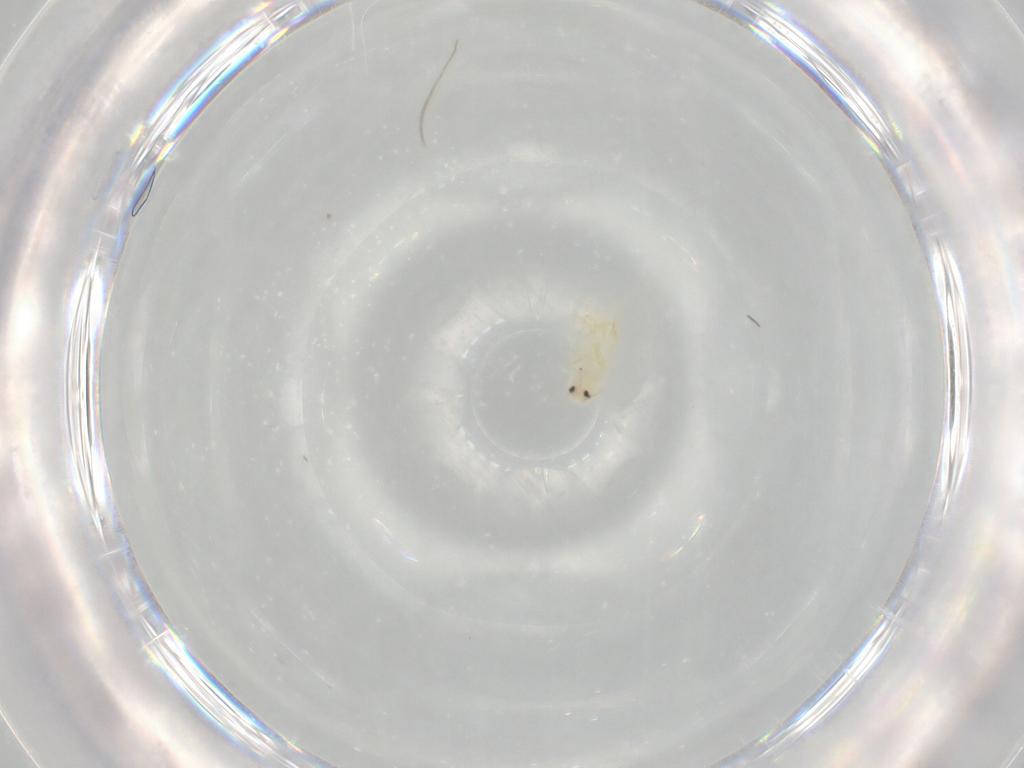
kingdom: Animalia
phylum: Arthropoda
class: Insecta
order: Hemiptera
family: Aleyrodidae
